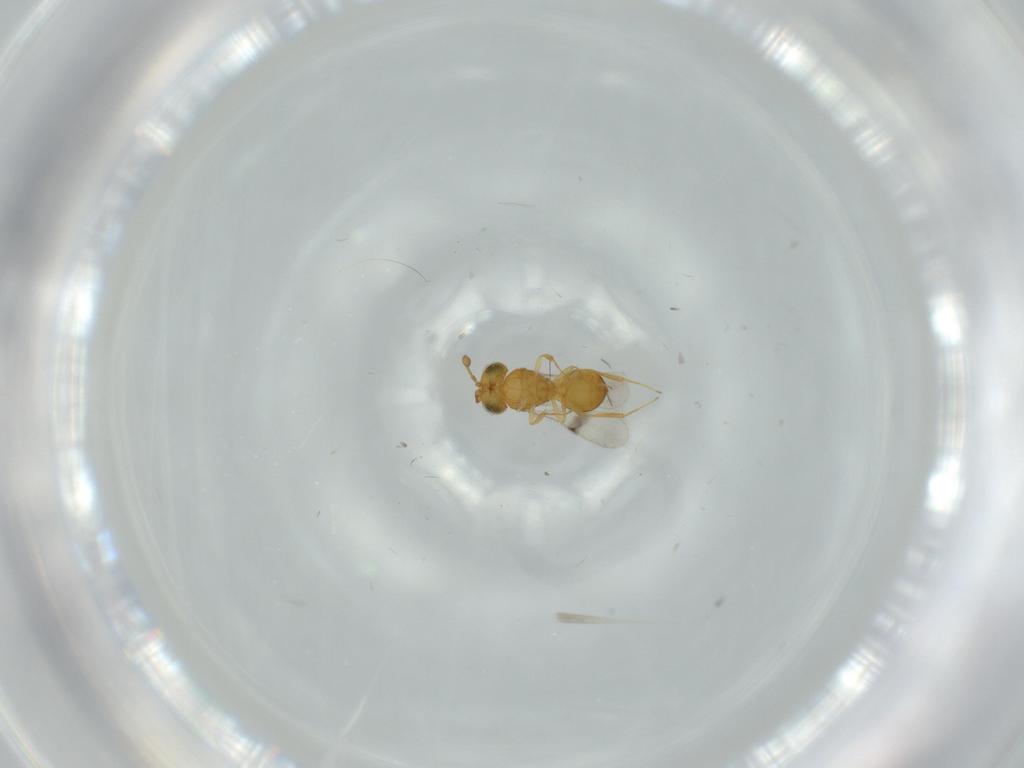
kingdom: Animalia
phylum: Arthropoda
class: Insecta
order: Hymenoptera
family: Scelionidae
